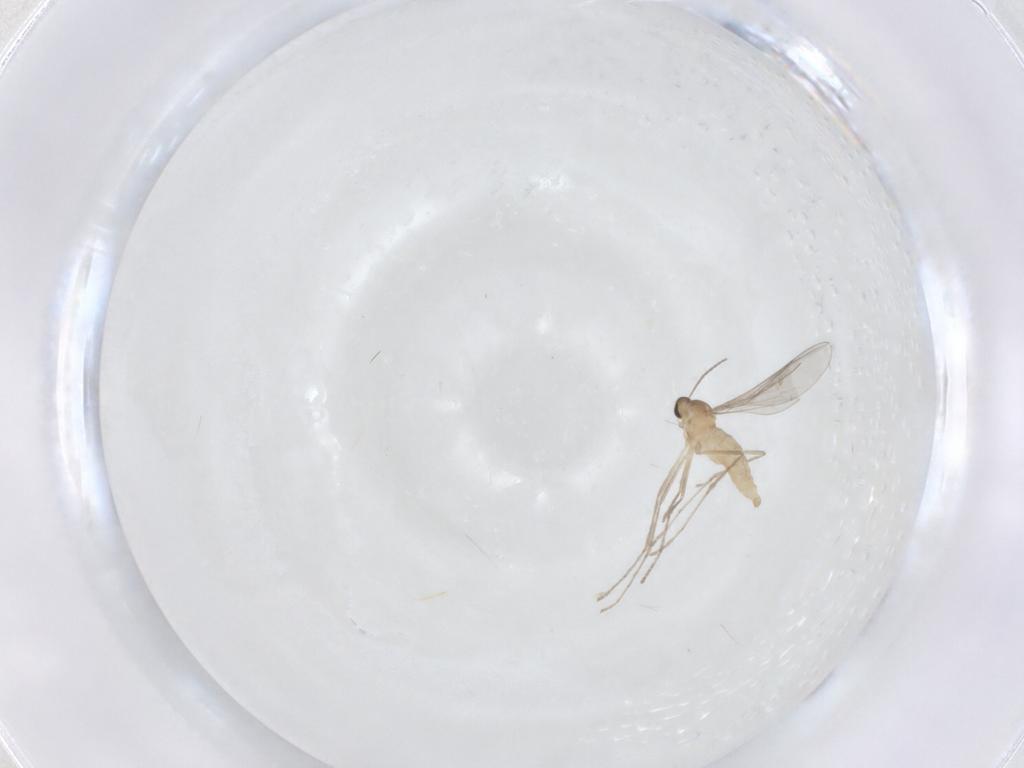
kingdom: Animalia
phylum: Arthropoda
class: Insecta
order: Diptera
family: Cecidomyiidae
